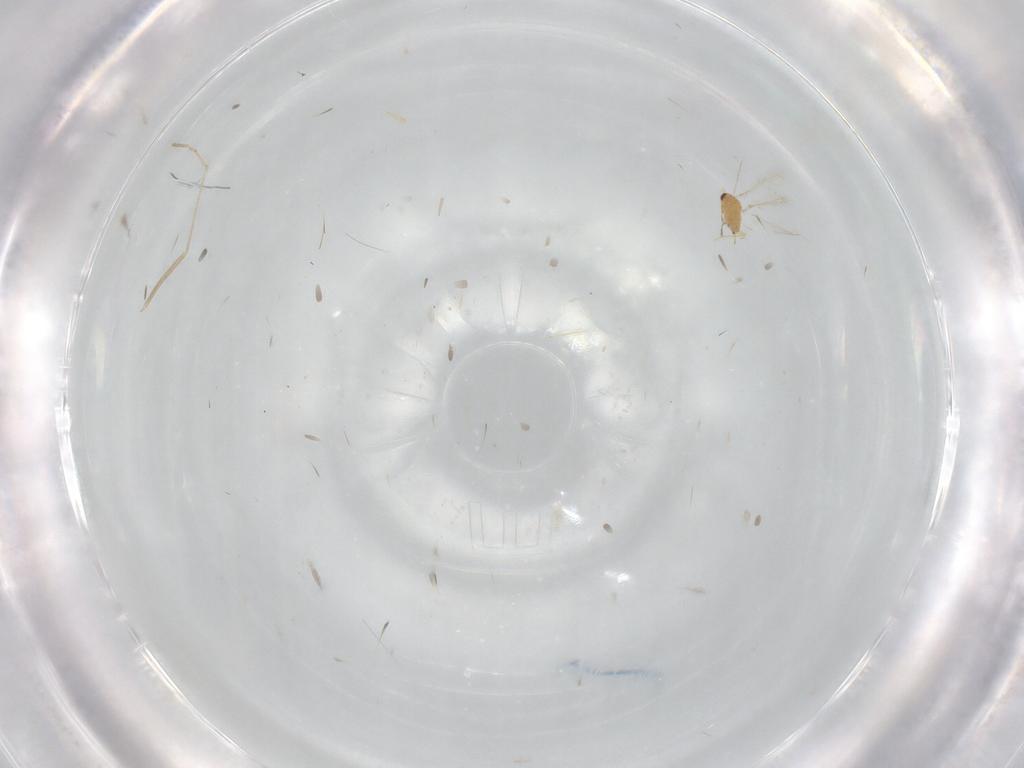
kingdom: Animalia
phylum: Arthropoda
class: Insecta
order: Hymenoptera
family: Mymaridae
